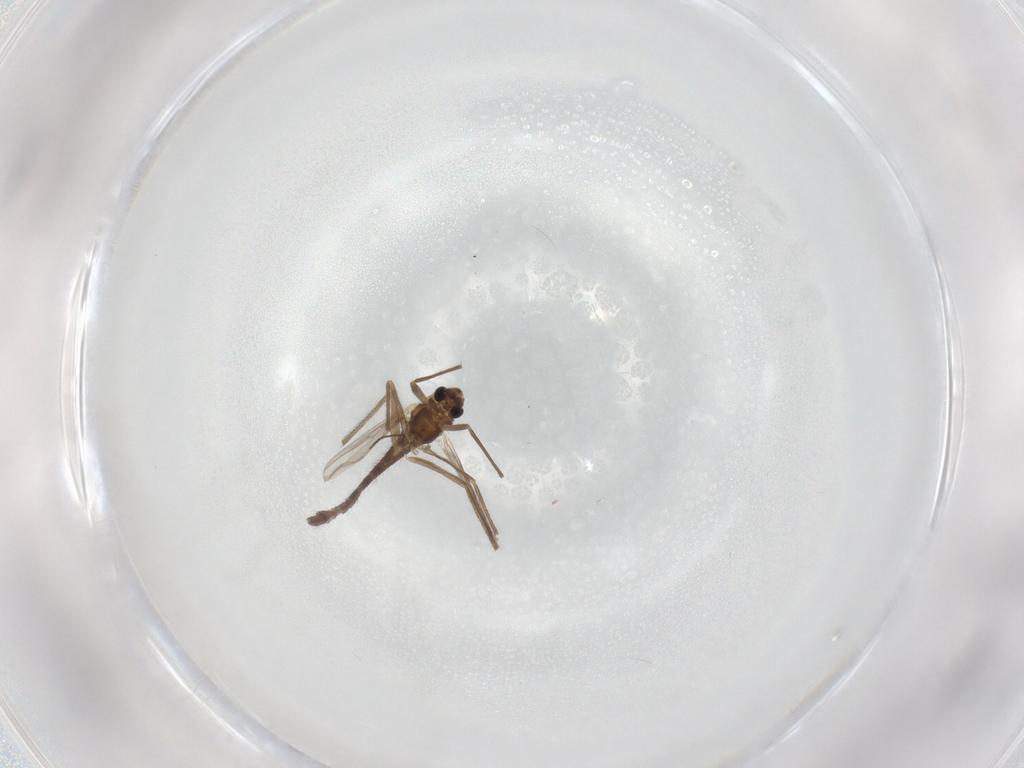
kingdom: Animalia
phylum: Arthropoda
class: Insecta
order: Diptera
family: Chironomidae
